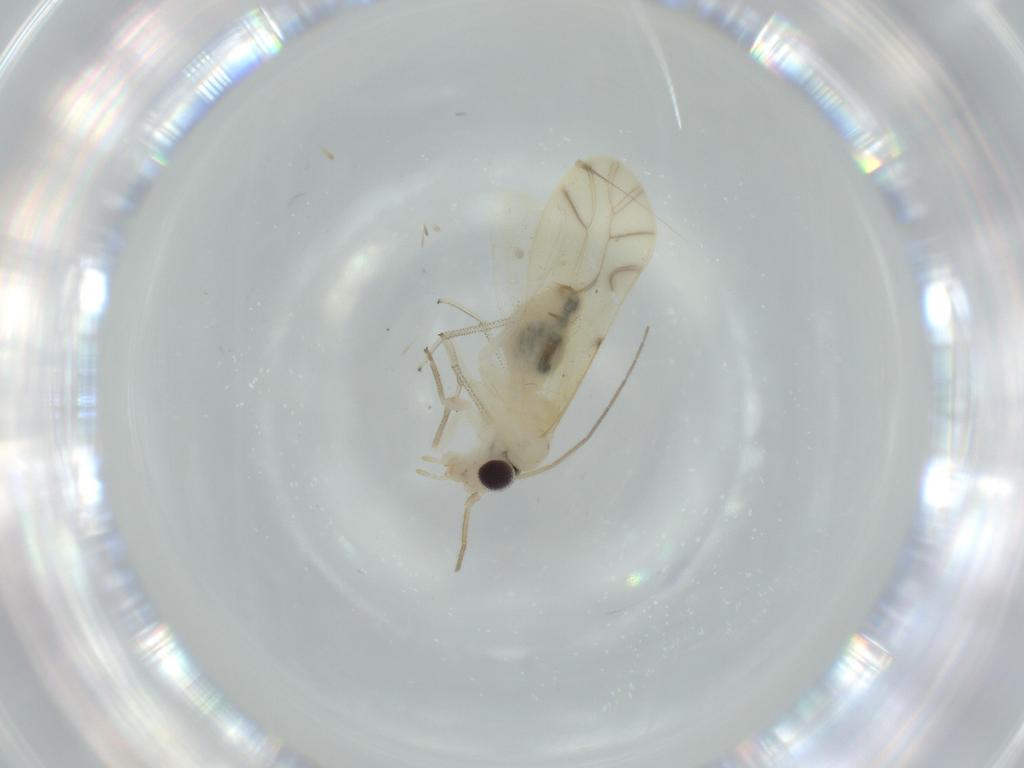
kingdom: Animalia
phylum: Arthropoda
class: Insecta
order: Psocodea
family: Caeciliusidae
